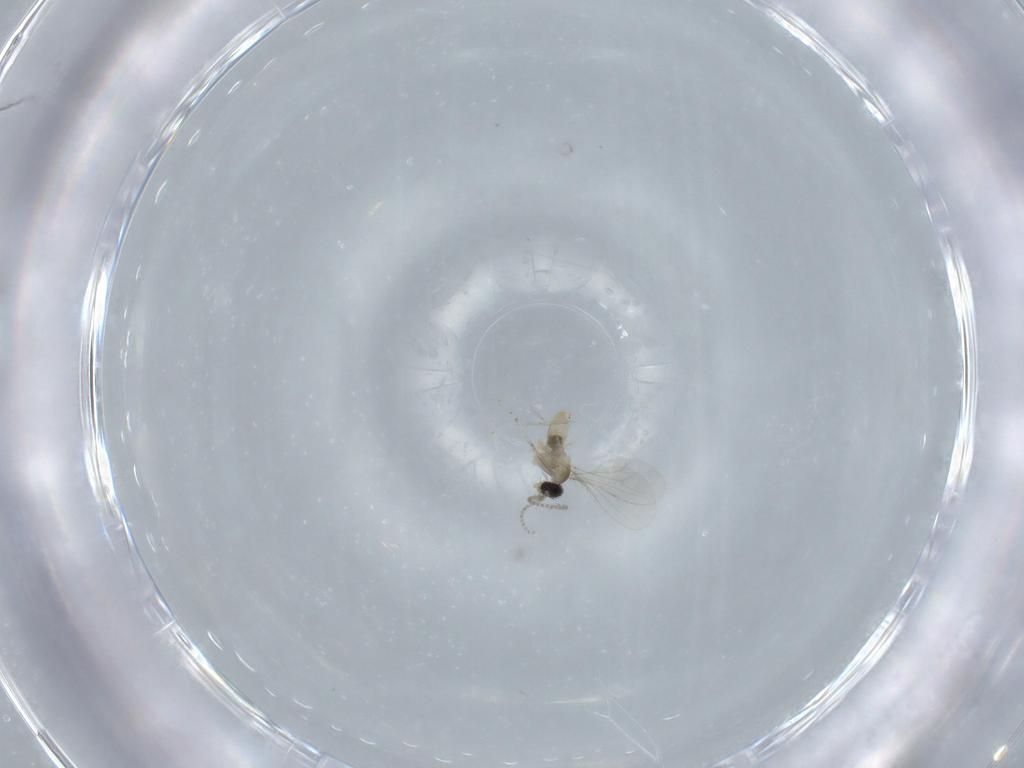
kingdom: Animalia
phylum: Arthropoda
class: Insecta
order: Diptera
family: Cecidomyiidae
